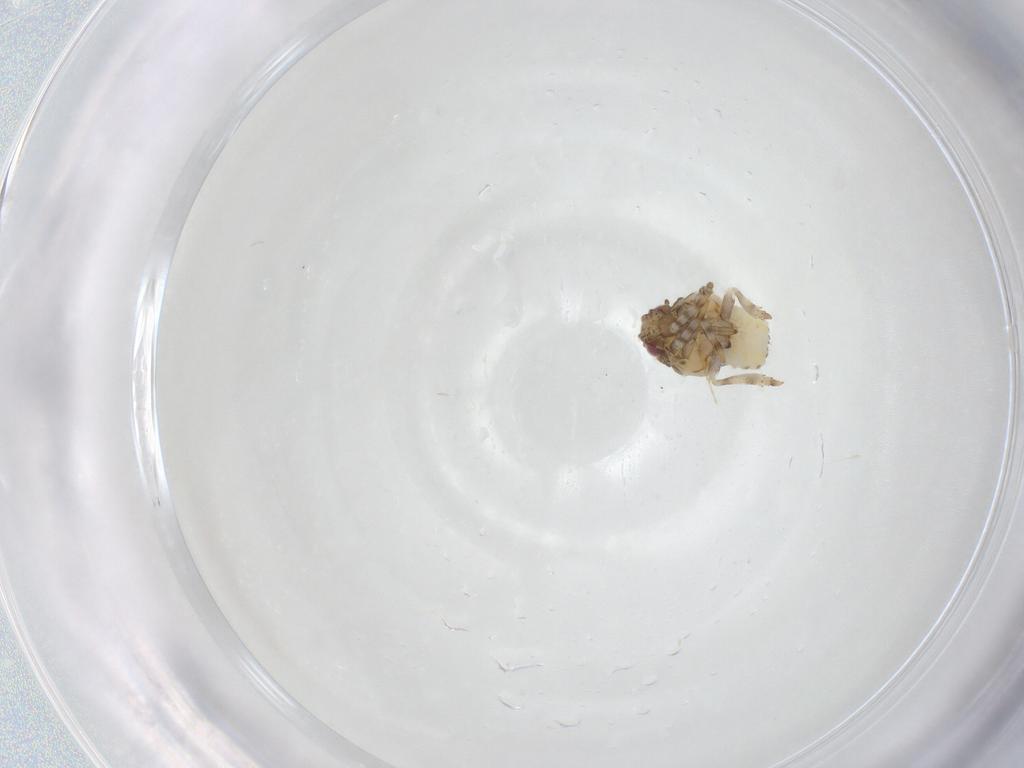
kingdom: Animalia
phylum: Arthropoda
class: Insecta
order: Hemiptera
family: Acanaloniidae
